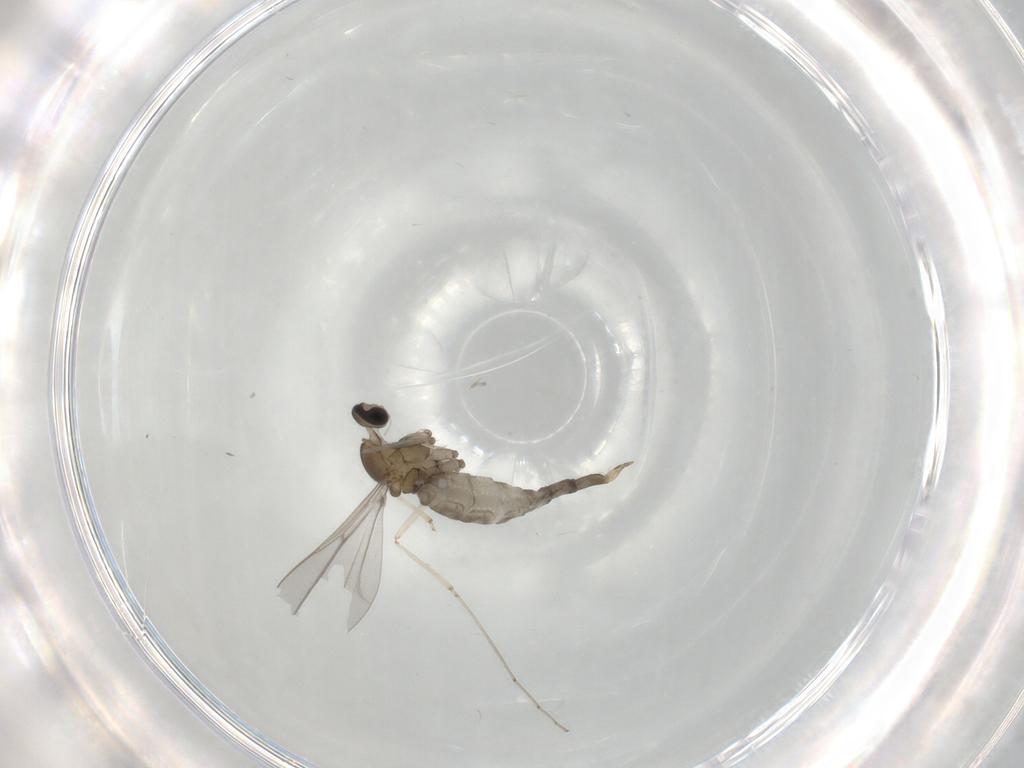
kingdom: Animalia
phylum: Arthropoda
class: Insecta
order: Diptera
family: Cecidomyiidae
